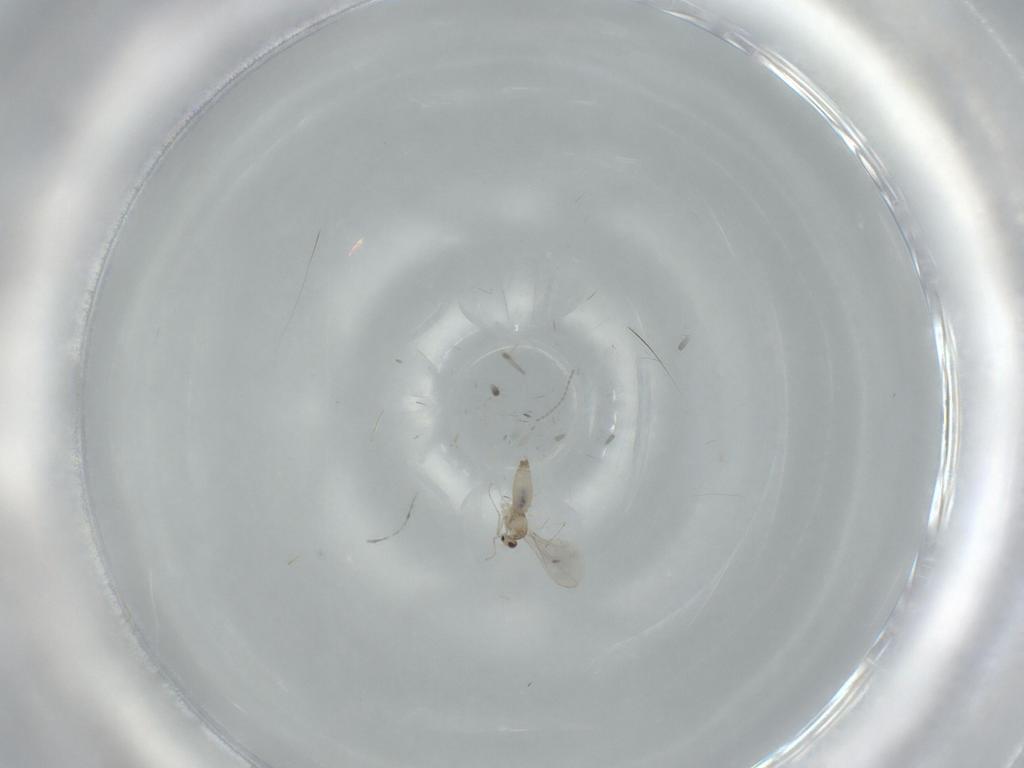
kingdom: Animalia
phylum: Arthropoda
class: Insecta
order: Diptera
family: Cecidomyiidae
